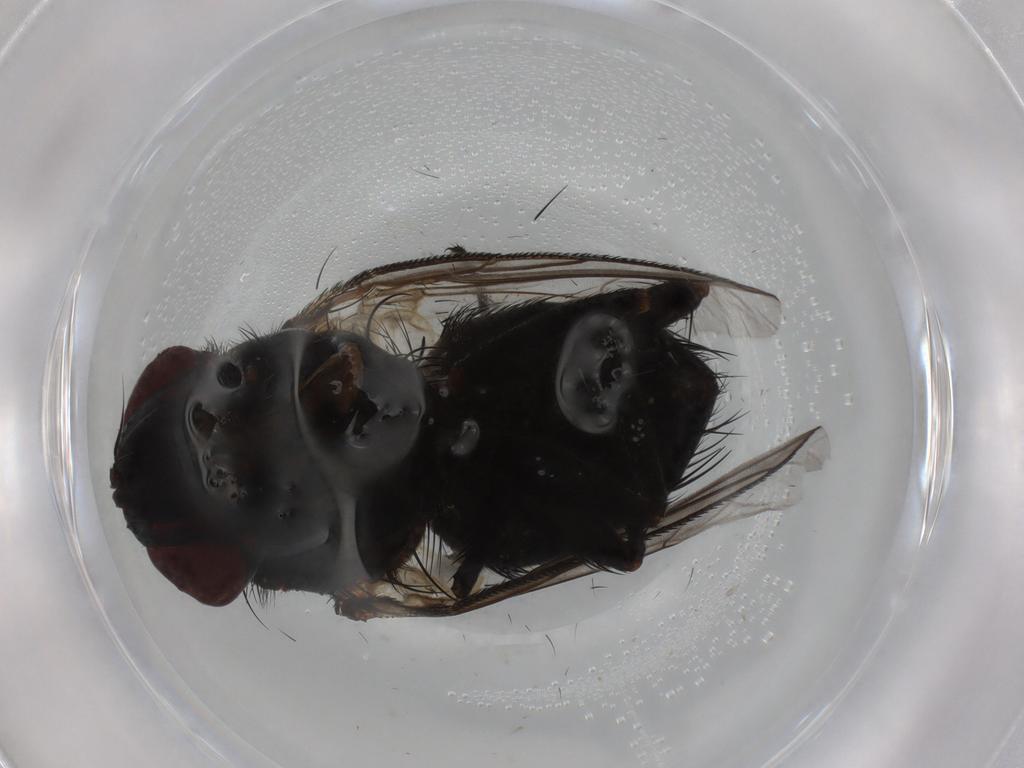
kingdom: Animalia
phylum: Arthropoda
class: Insecta
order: Diptera
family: Tachinidae
